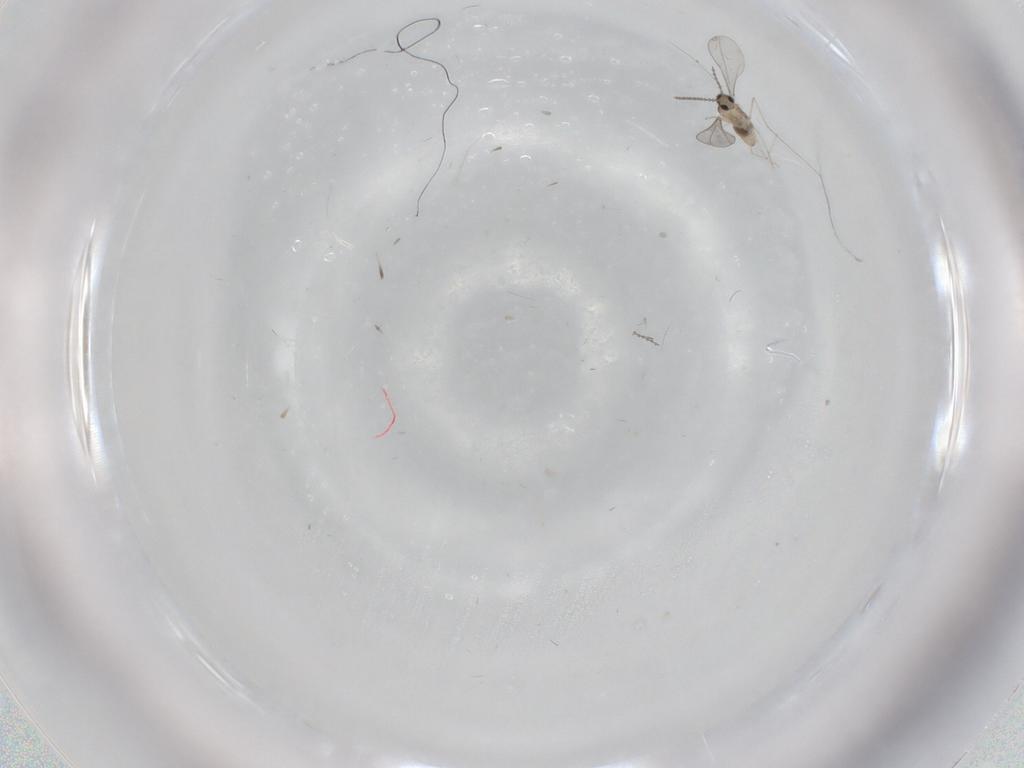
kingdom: Animalia
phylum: Arthropoda
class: Insecta
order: Diptera
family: Cecidomyiidae
